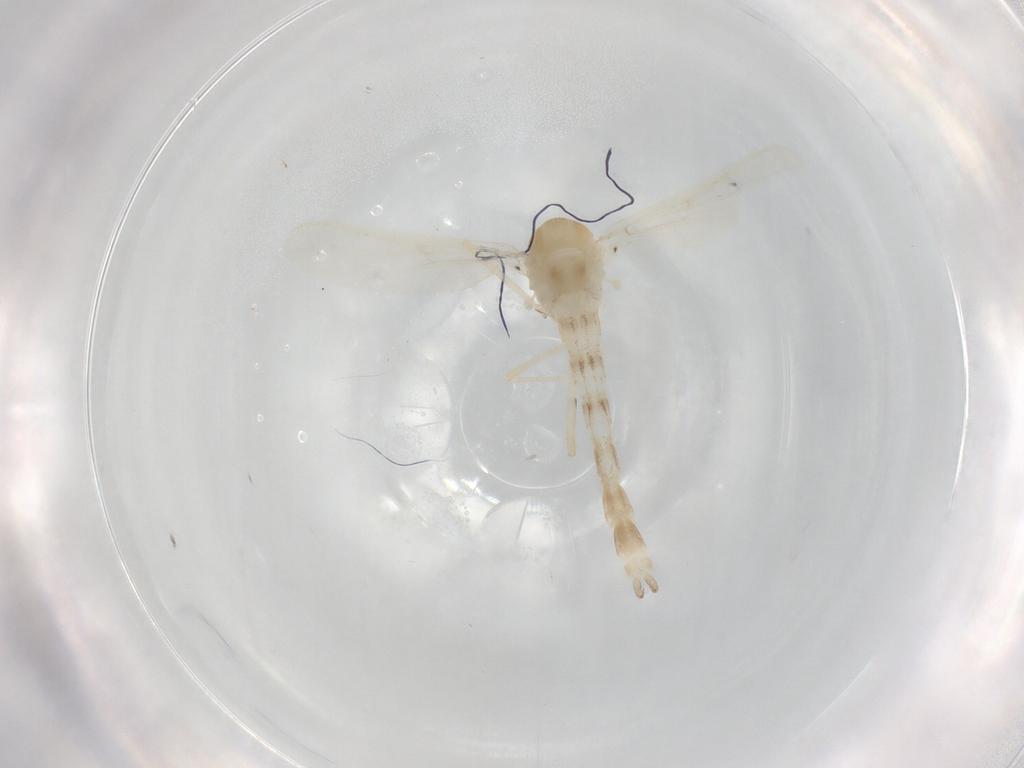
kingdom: Animalia
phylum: Arthropoda
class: Insecta
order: Diptera
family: Chironomidae
